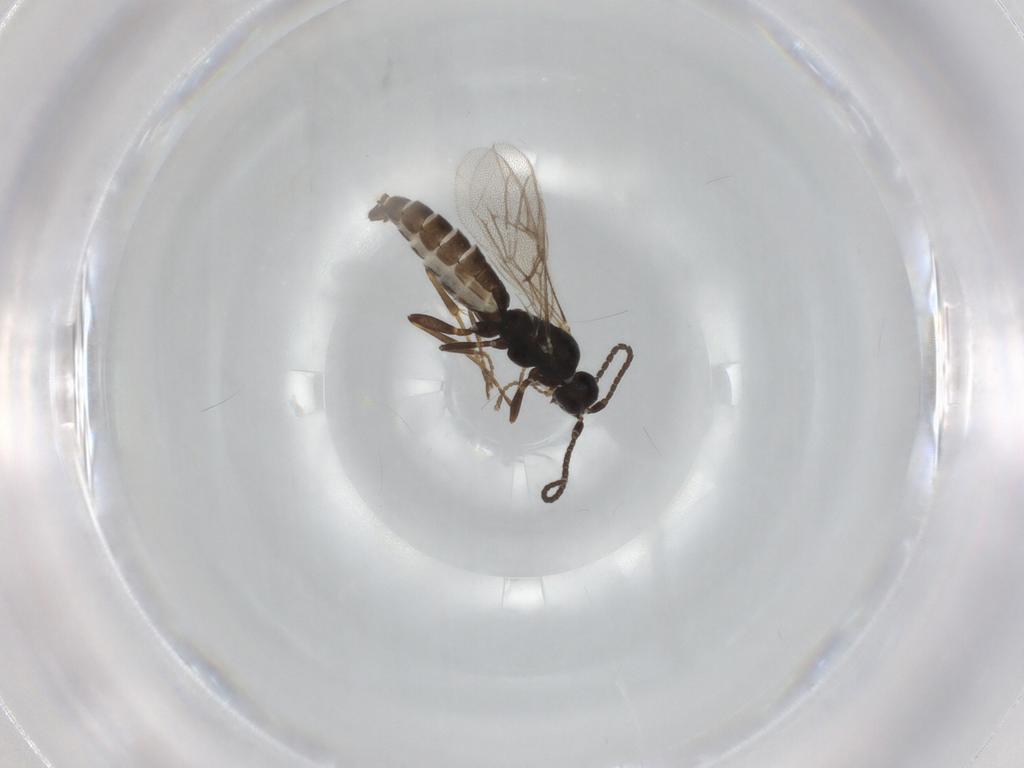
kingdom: Animalia
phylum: Arthropoda
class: Insecta
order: Hymenoptera
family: Ichneumonidae
